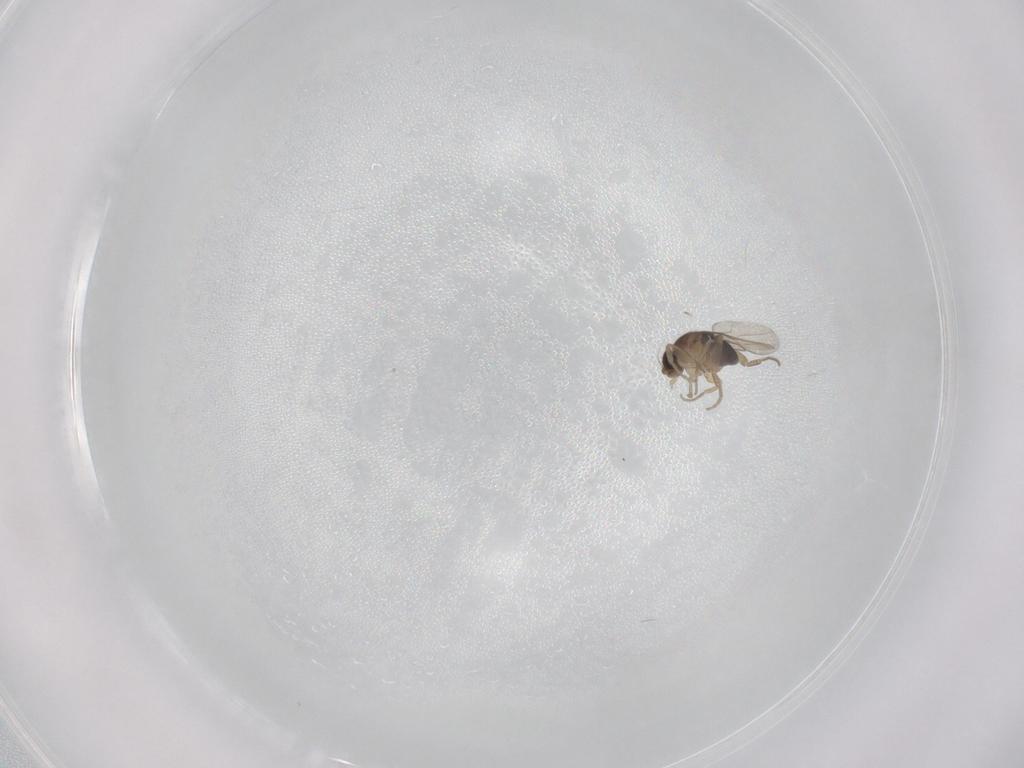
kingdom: Animalia
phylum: Arthropoda
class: Insecta
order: Diptera
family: Phoridae
